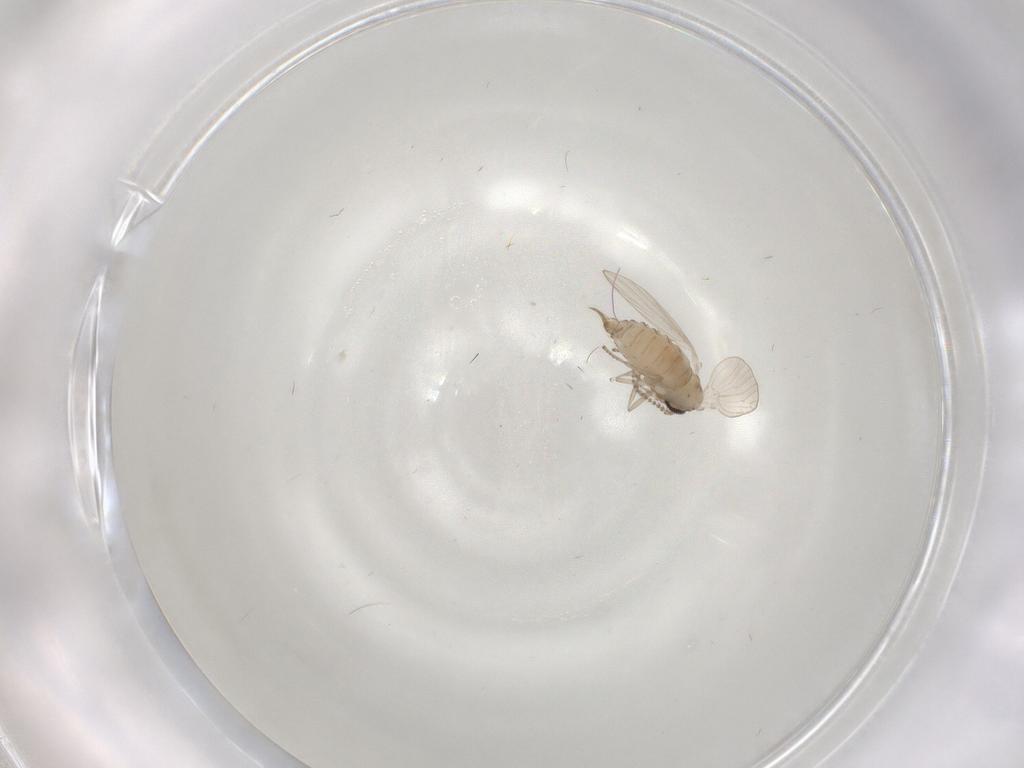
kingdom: Animalia
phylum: Arthropoda
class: Insecta
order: Diptera
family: Psychodidae
